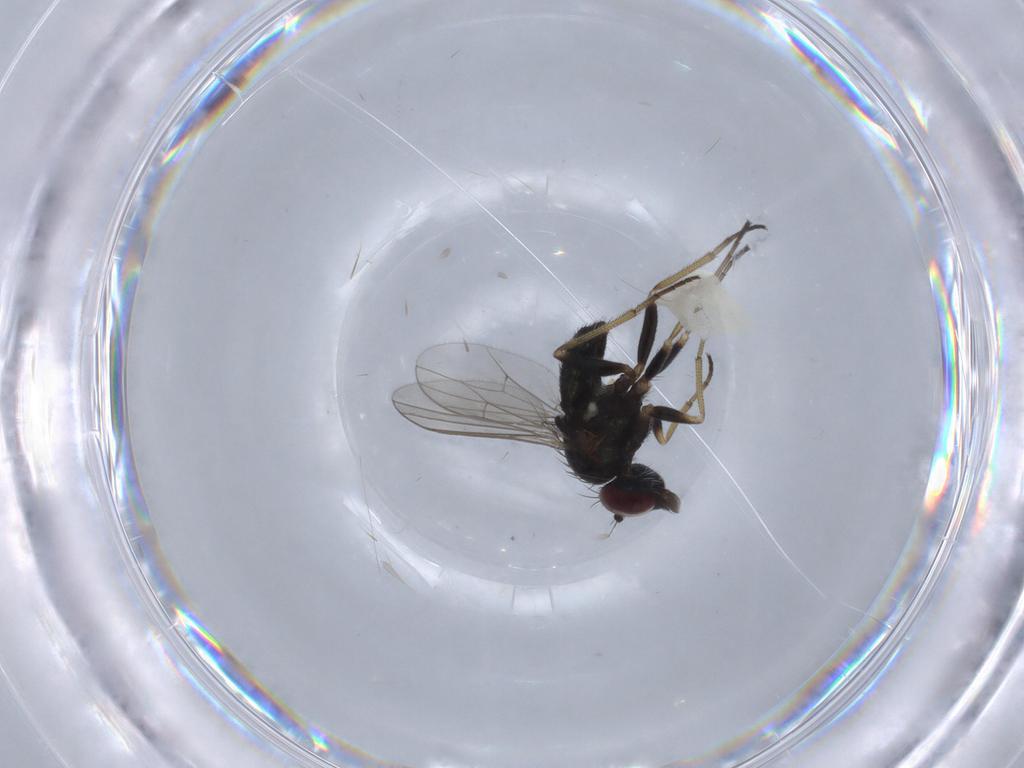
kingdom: Animalia
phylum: Arthropoda
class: Insecta
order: Diptera
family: Dolichopodidae
